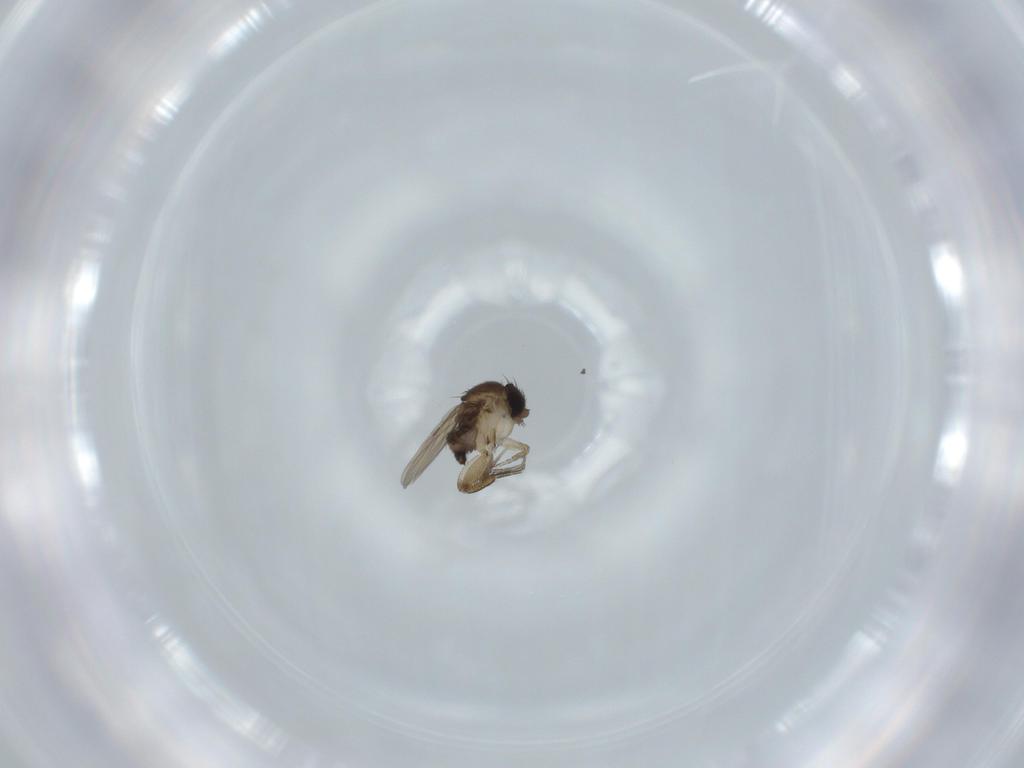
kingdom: Animalia
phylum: Arthropoda
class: Insecta
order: Diptera
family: Phoridae
